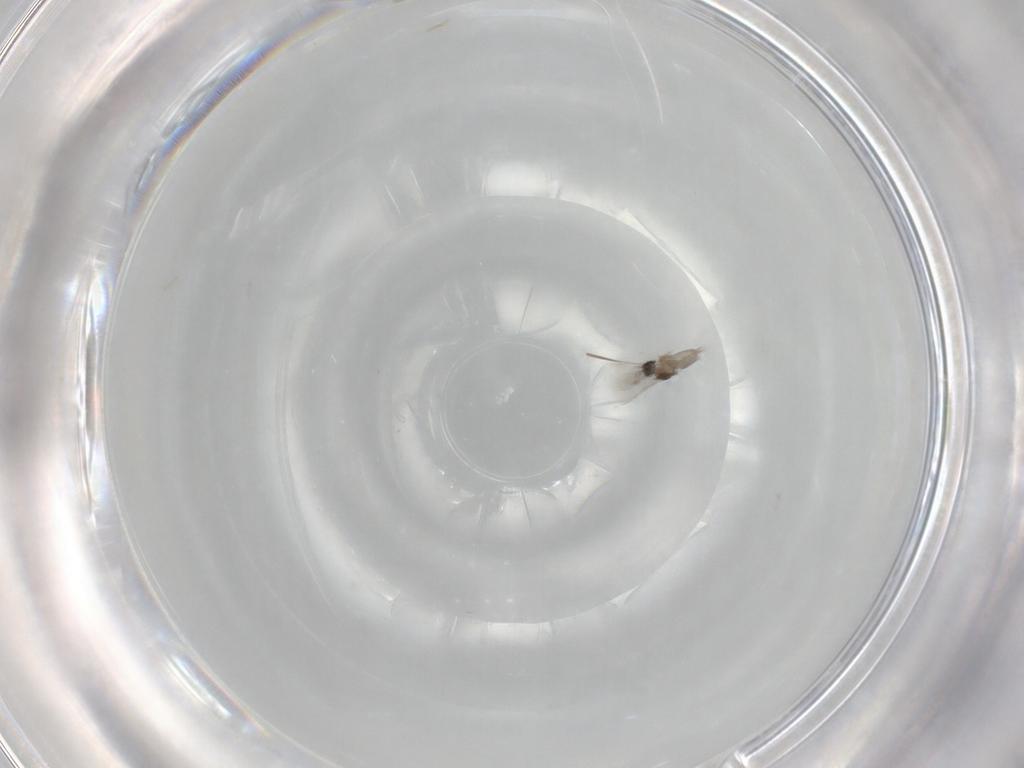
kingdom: Animalia
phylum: Arthropoda
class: Insecta
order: Diptera
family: Cecidomyiidae
